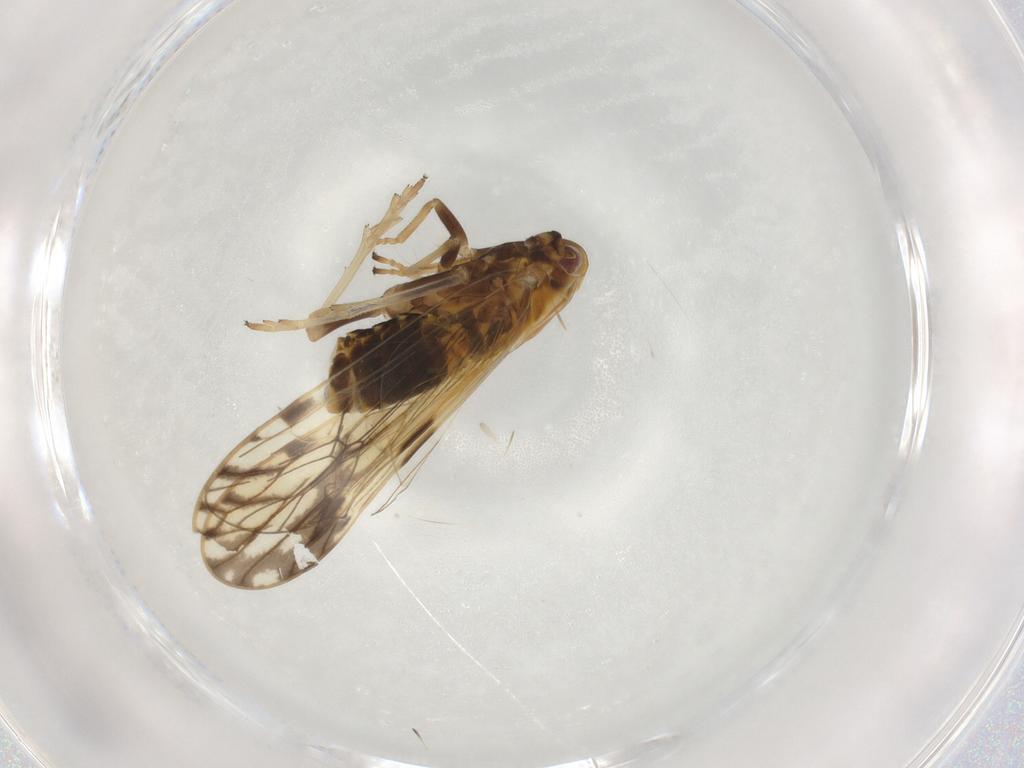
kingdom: Animalia
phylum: Arthropoda
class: Insecta
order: Hemiptera
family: Delphacidae
